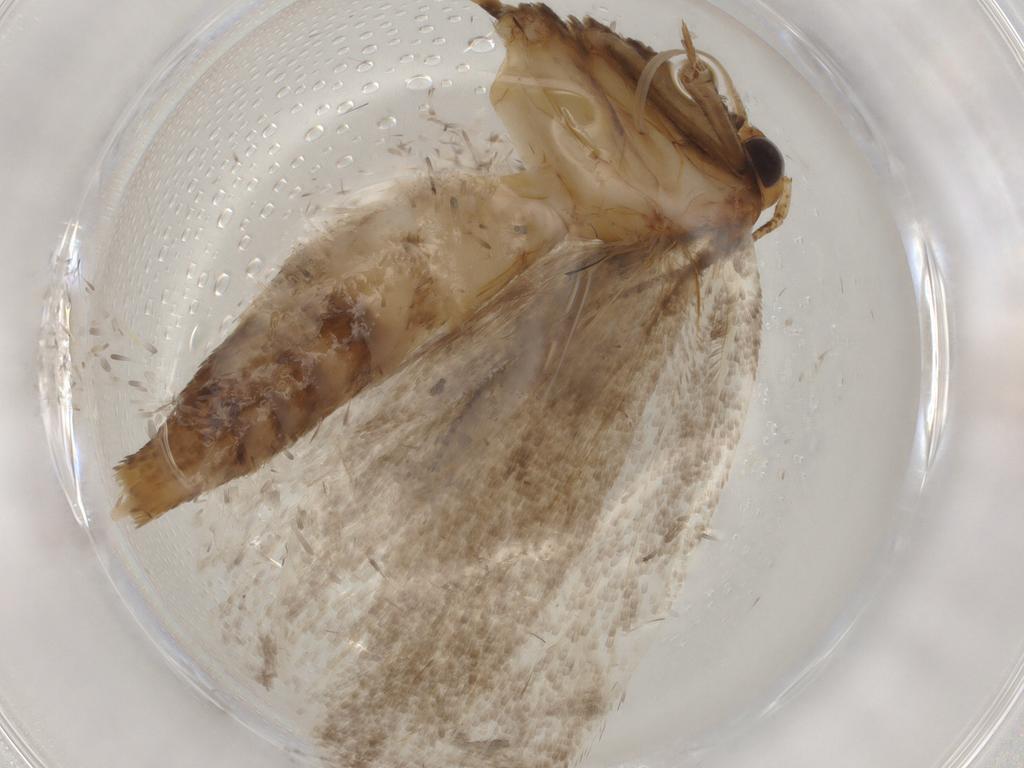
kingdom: Animalia
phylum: Arthropoda
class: Insecta
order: Lepidoptera
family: Oecophoridae
